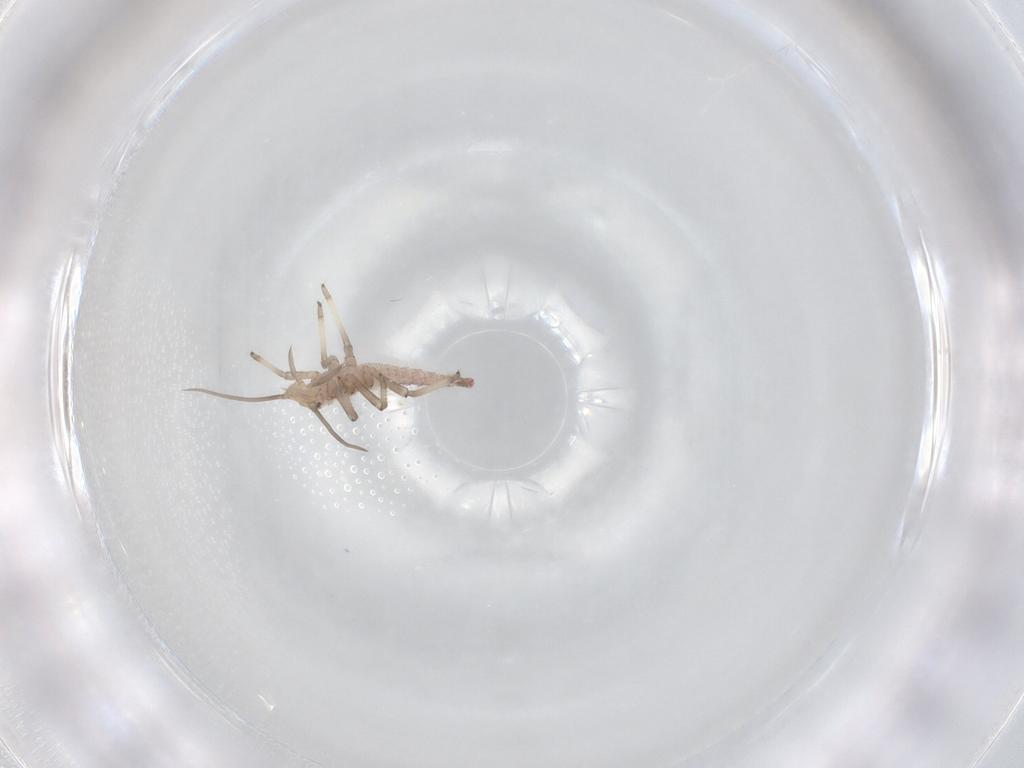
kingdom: Animalia
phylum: Arthropoda
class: Insecta
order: Neuroptera
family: Hemerobiidae
